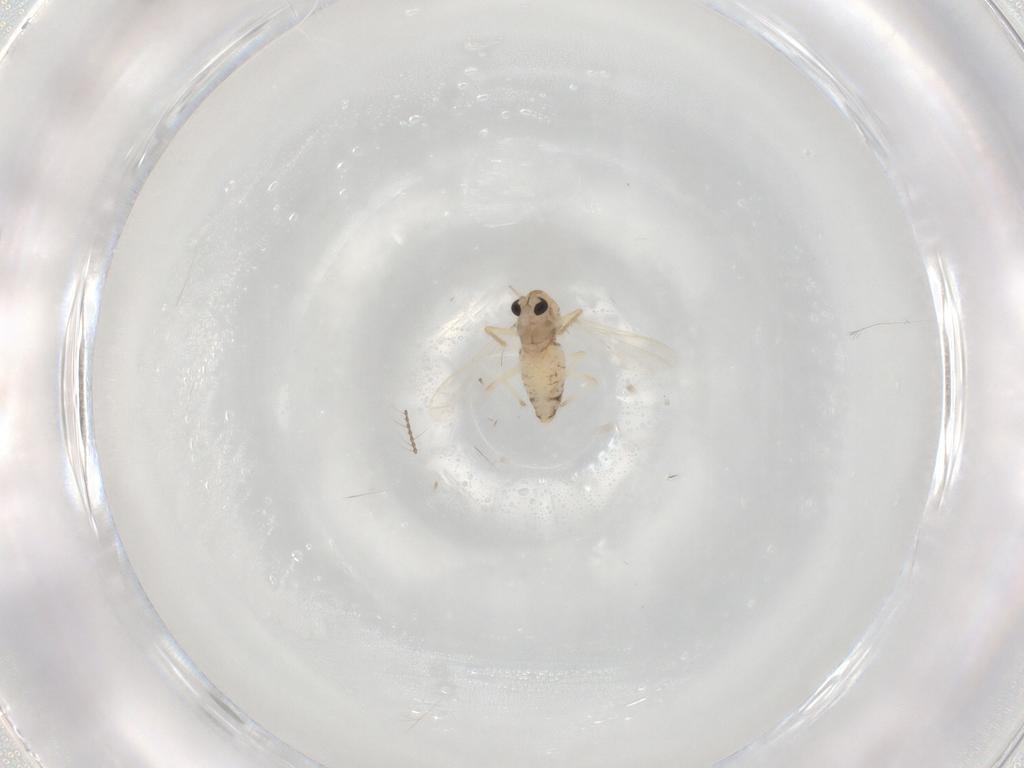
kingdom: Animalia
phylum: Arthropoda
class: Insecta
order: Diptera
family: Chironomidae
